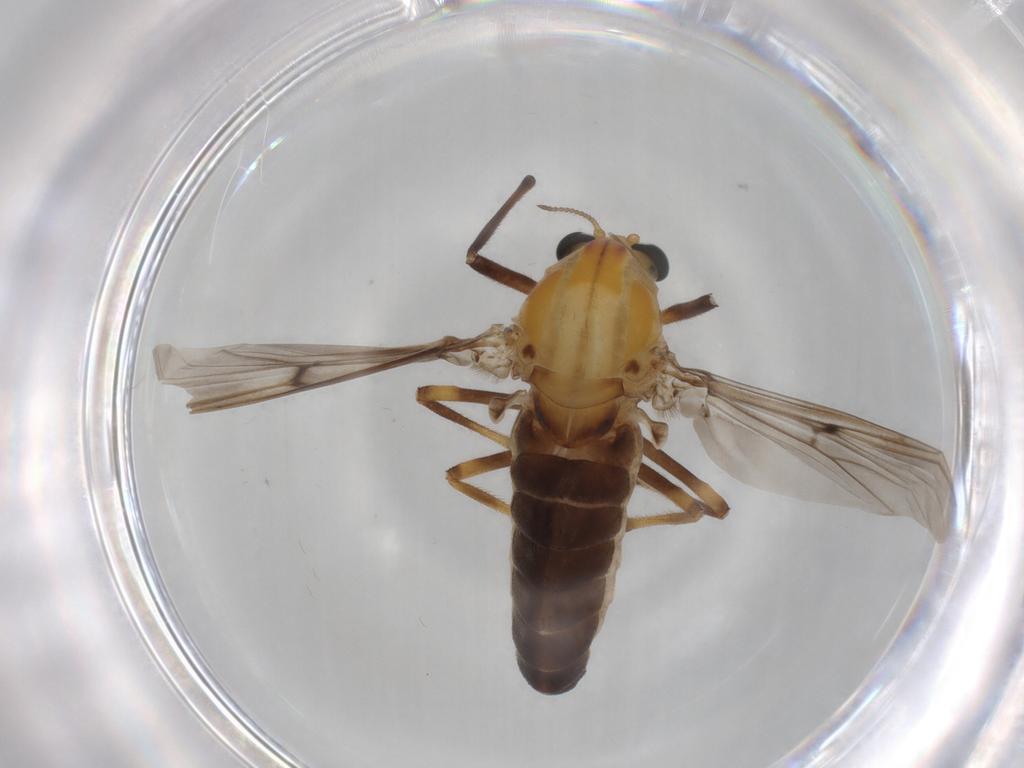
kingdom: Animalia
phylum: Arthropoda
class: Insecta
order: Diptera
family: Chironomidae
